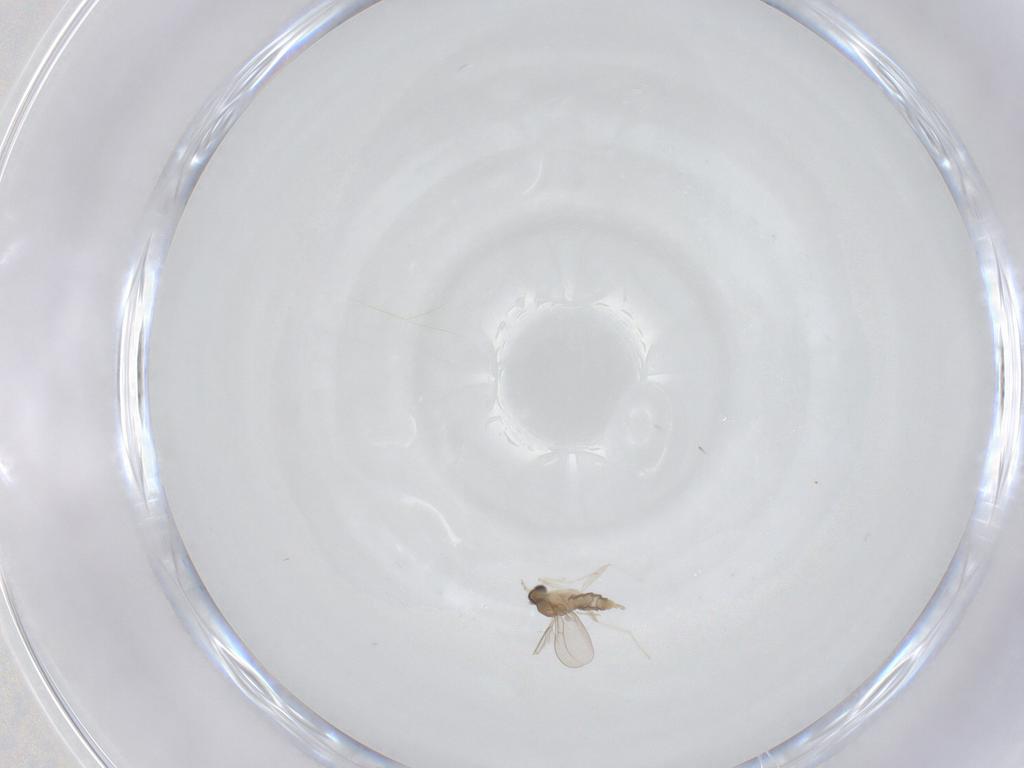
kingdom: Animalia
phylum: Arthropoda
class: Insecta
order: Diptera
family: Cecidomyiidae
